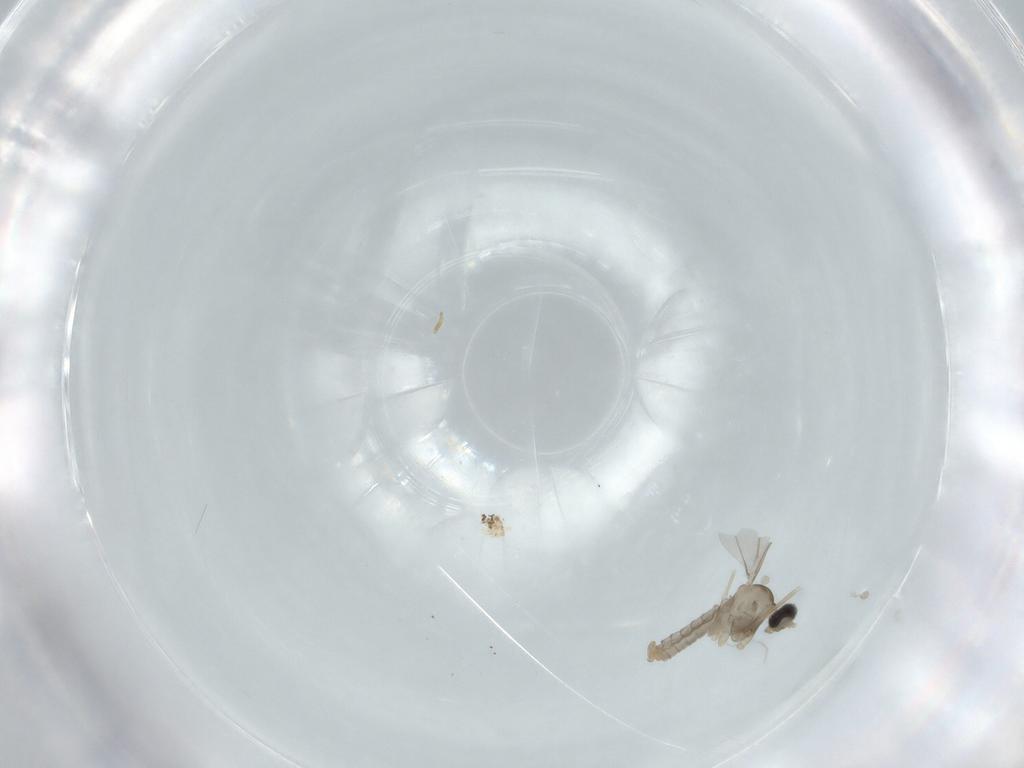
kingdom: Animalia
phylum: Arthropoda
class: Insecta
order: Diptera
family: Cecidomyiidae
